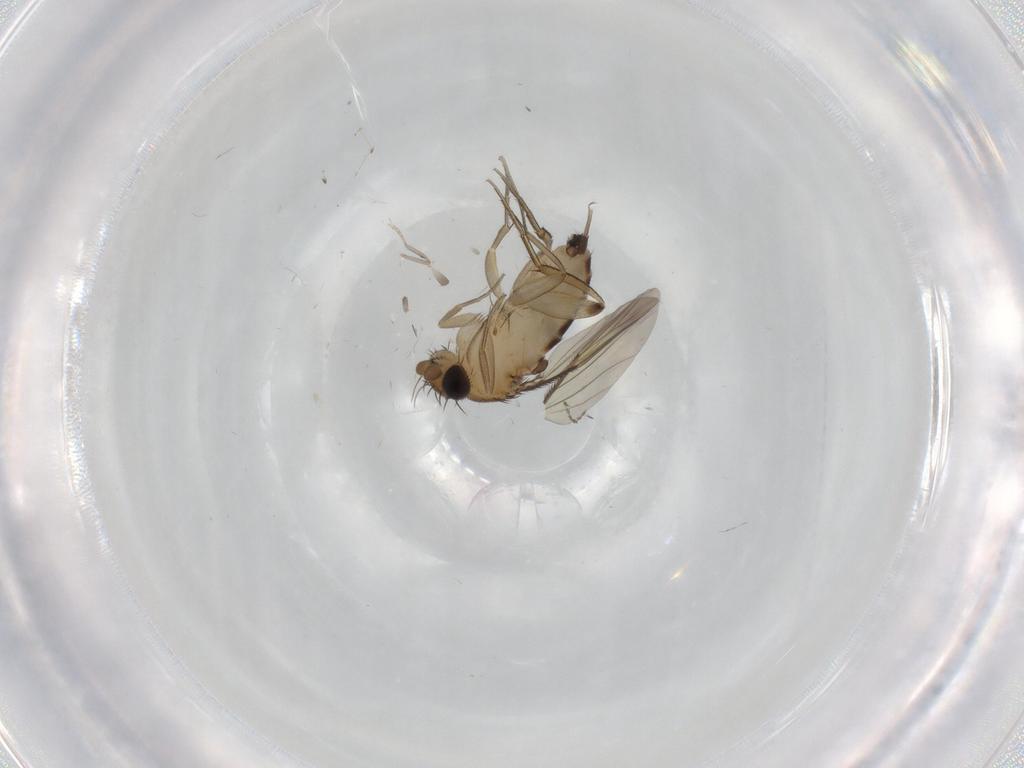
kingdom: Animalia
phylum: Arthropoda
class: Insecta
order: Diptera
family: Phoridae
